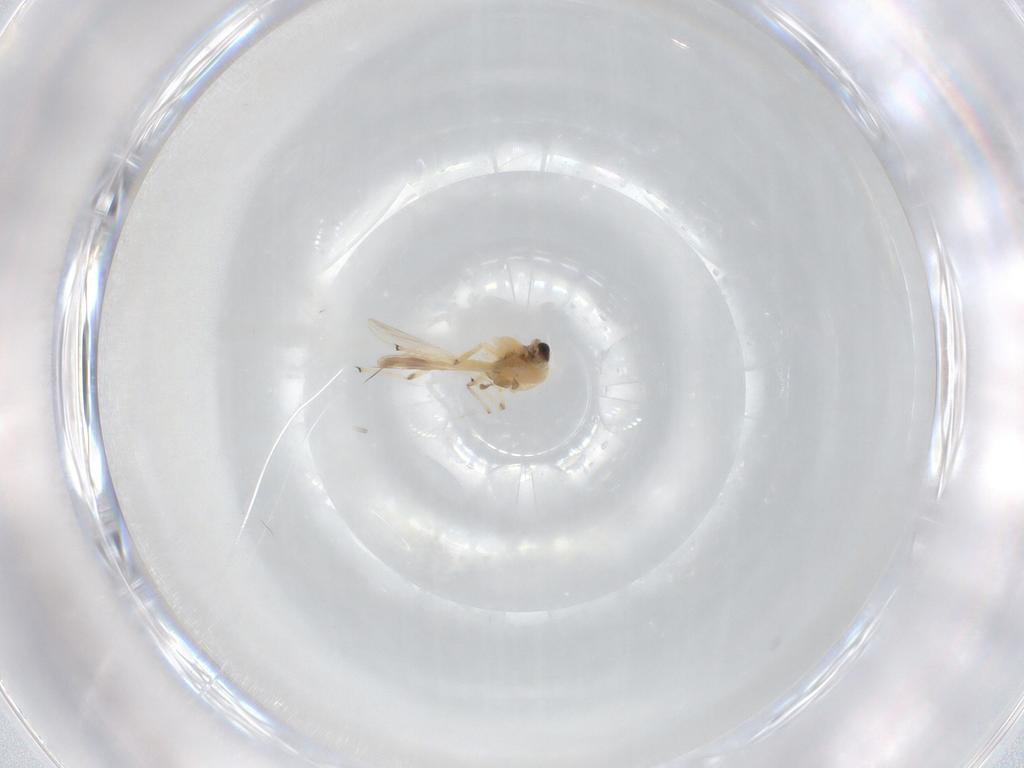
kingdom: Animalia
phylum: Arthropoda
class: Insecta
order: Diptera
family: Chironomidae
